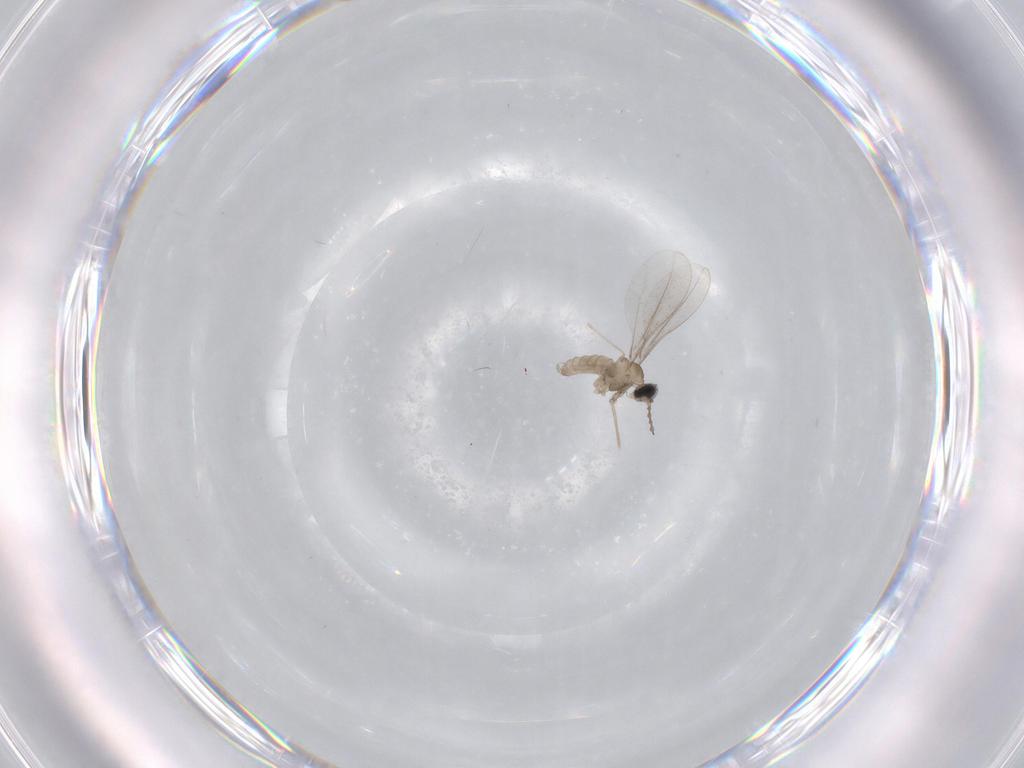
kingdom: Animalia
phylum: Arthropoda
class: Insecta
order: Diptera
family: Cecidomyiidae
